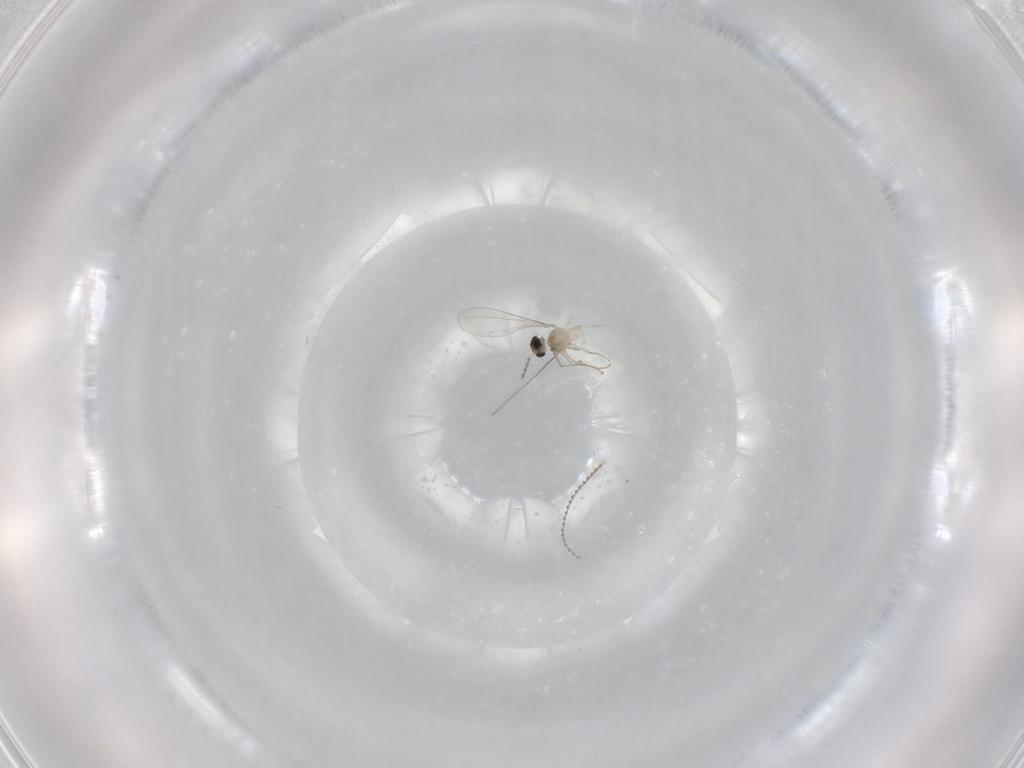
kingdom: Animalia
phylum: Arthropoda
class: Insecta
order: Diptera
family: Cecidomyiidae
